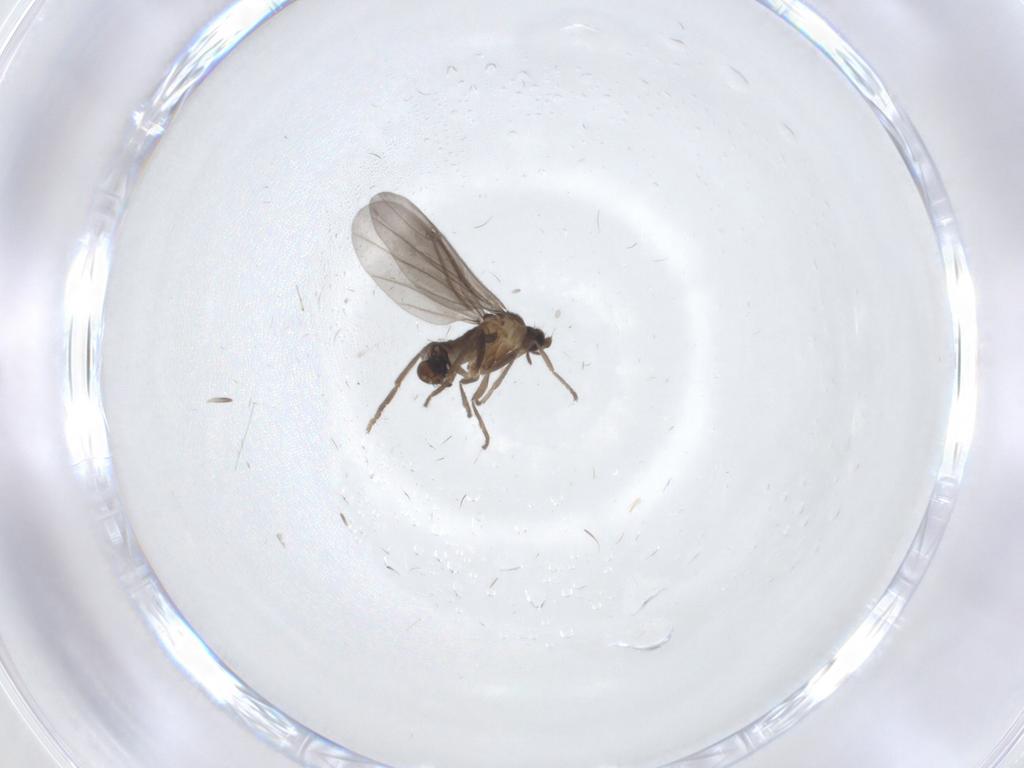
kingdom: Animalia
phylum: Arthropoda
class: Insecta
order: Diptera
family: Phoridae
